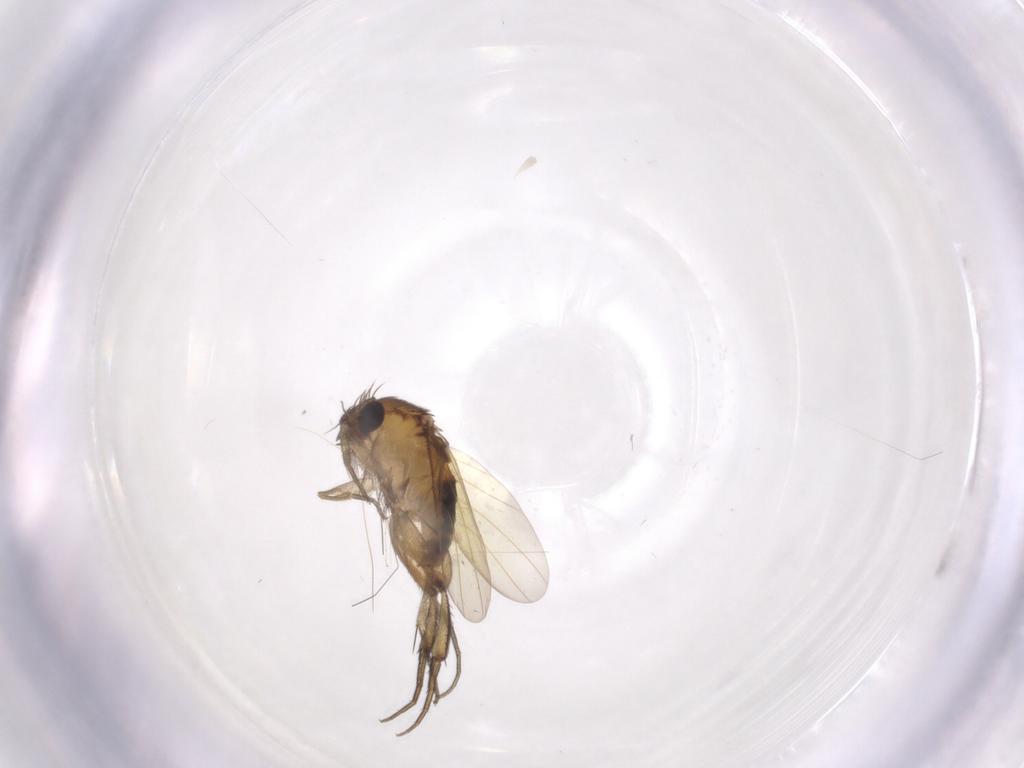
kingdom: Animalia
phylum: Arthropoda
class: Insecta
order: Diptera
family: Phoridae
